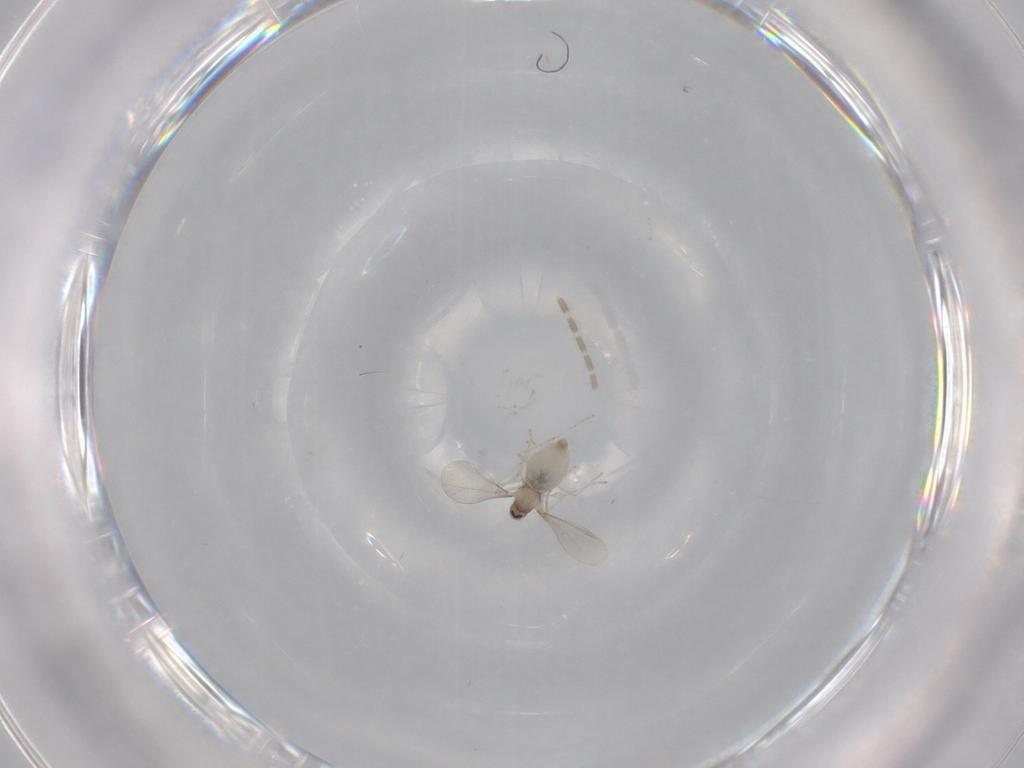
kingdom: Animalia
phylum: Arthropoda
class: Insecta
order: Diptera
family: Cecidomyiidae
